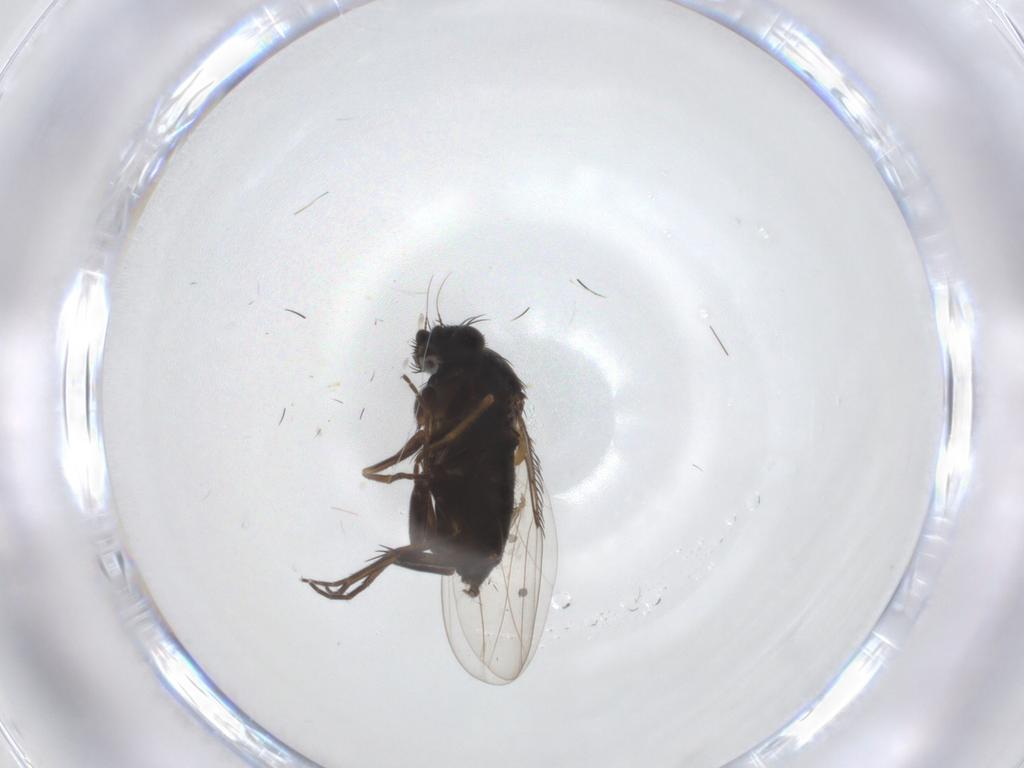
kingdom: Animalia
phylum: Arthropoda
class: Insecta
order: Diptera
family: Phoridae
